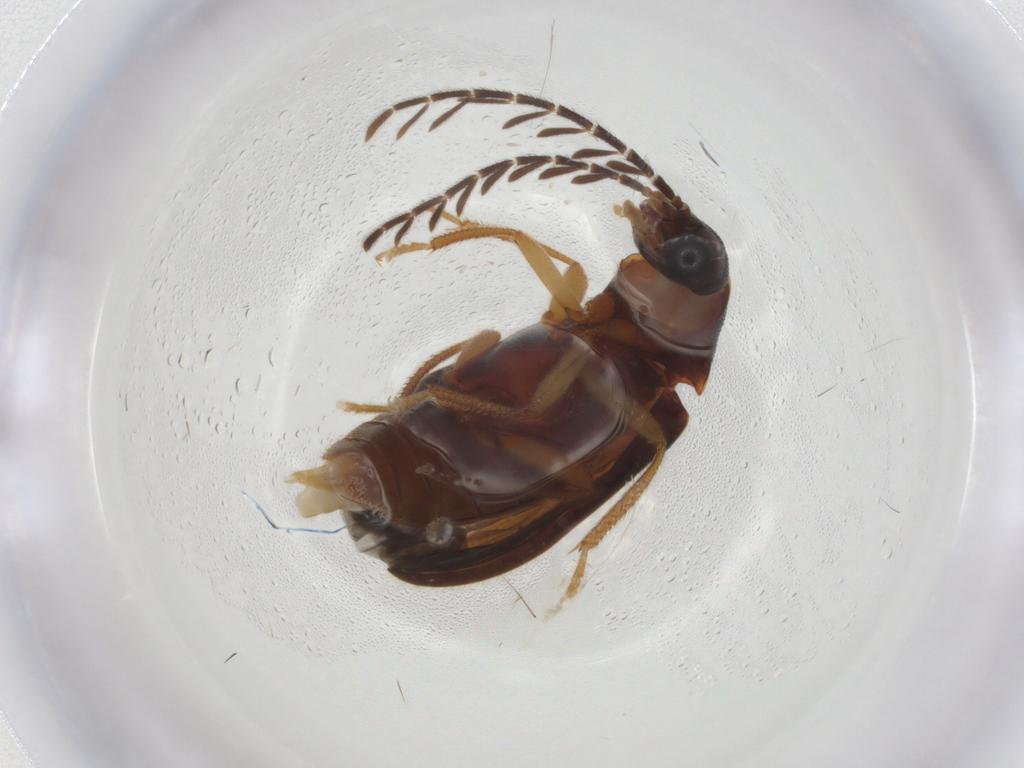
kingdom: Animalia
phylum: Arthropoda
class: Insecta
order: Coleoptera
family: Ptilodactylidae
